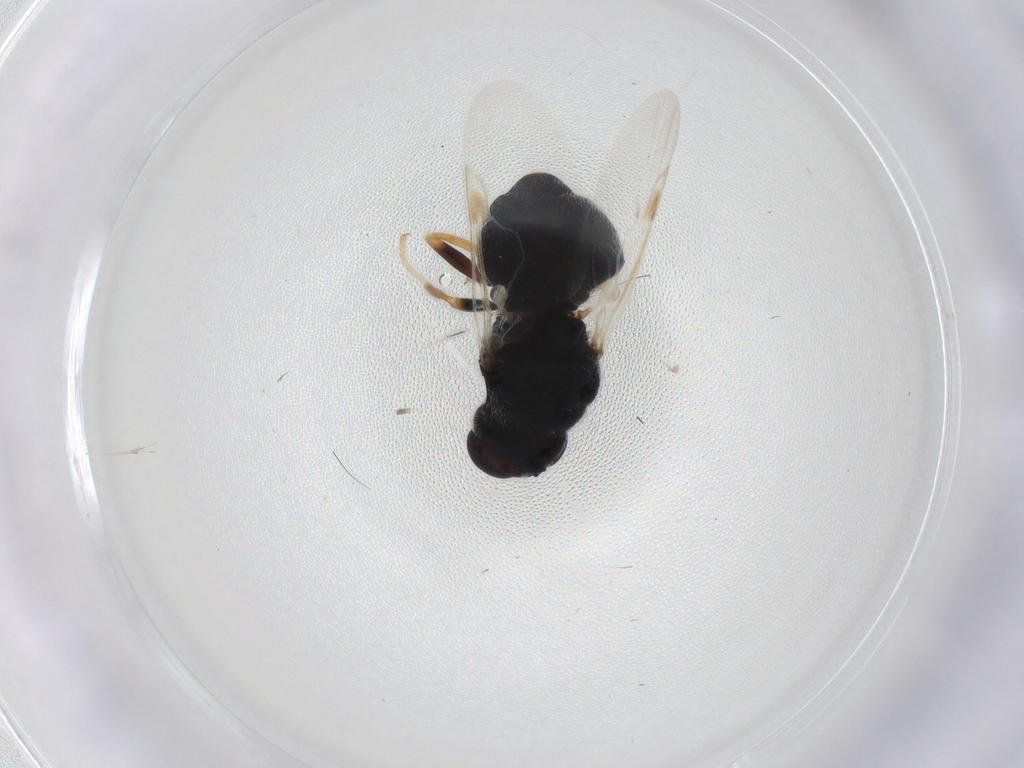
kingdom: Animalia
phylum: Arthropoda
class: Insecta
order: Diptera
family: Stratiomyidae
